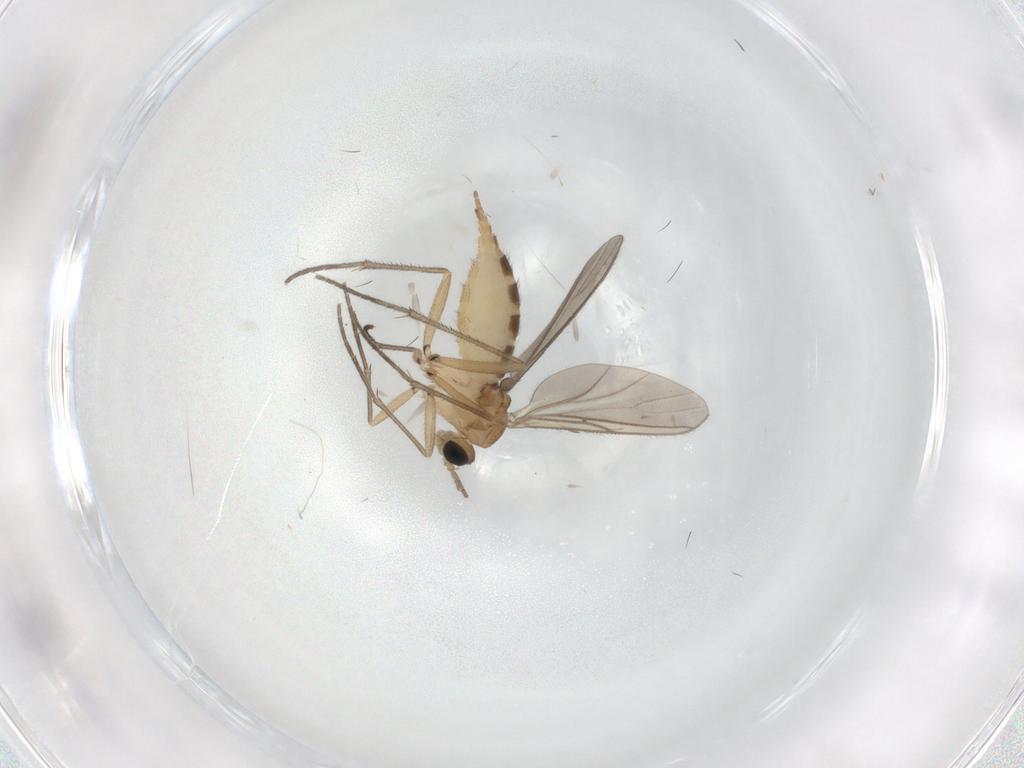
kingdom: Animalia
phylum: Arthropoda
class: Insecta
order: Diptera
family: Sciaridae
